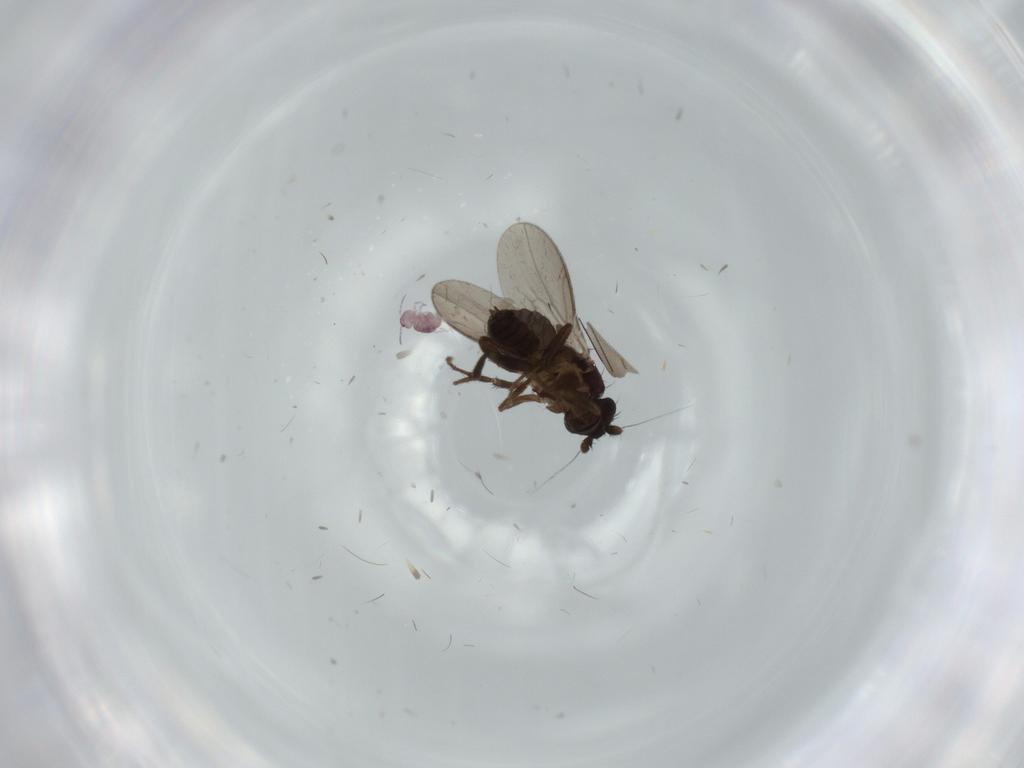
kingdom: Animalia
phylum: Arthropoda
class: Insecta
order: Diptera
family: Sphaeroceridae
